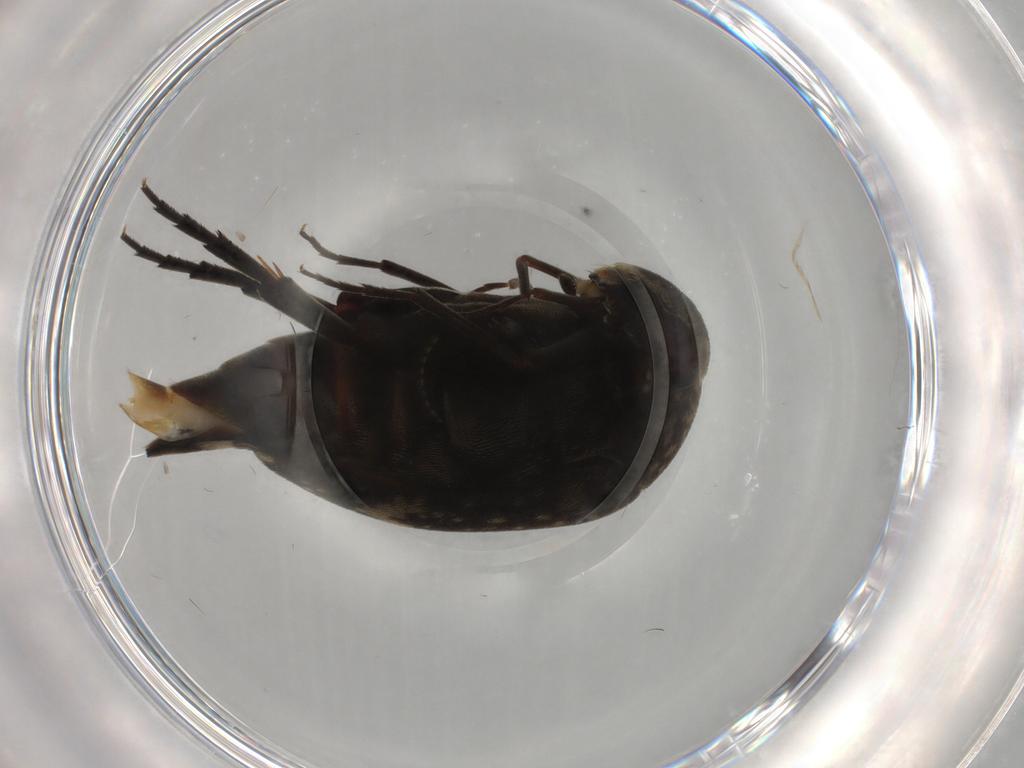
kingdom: Animalia
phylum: Arthropoda
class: Insecta
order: Coleoptera
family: Mordellidae
